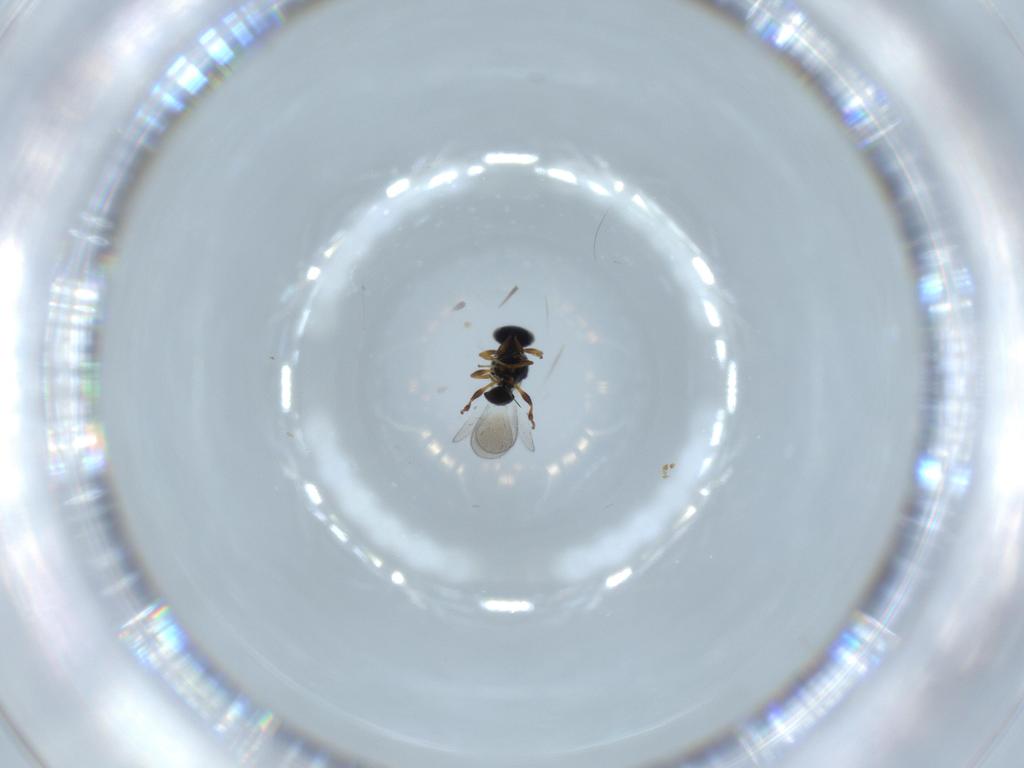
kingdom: Animalia
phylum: Arthropoda
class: Insecta
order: Hymenoptera
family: Platygastridae
